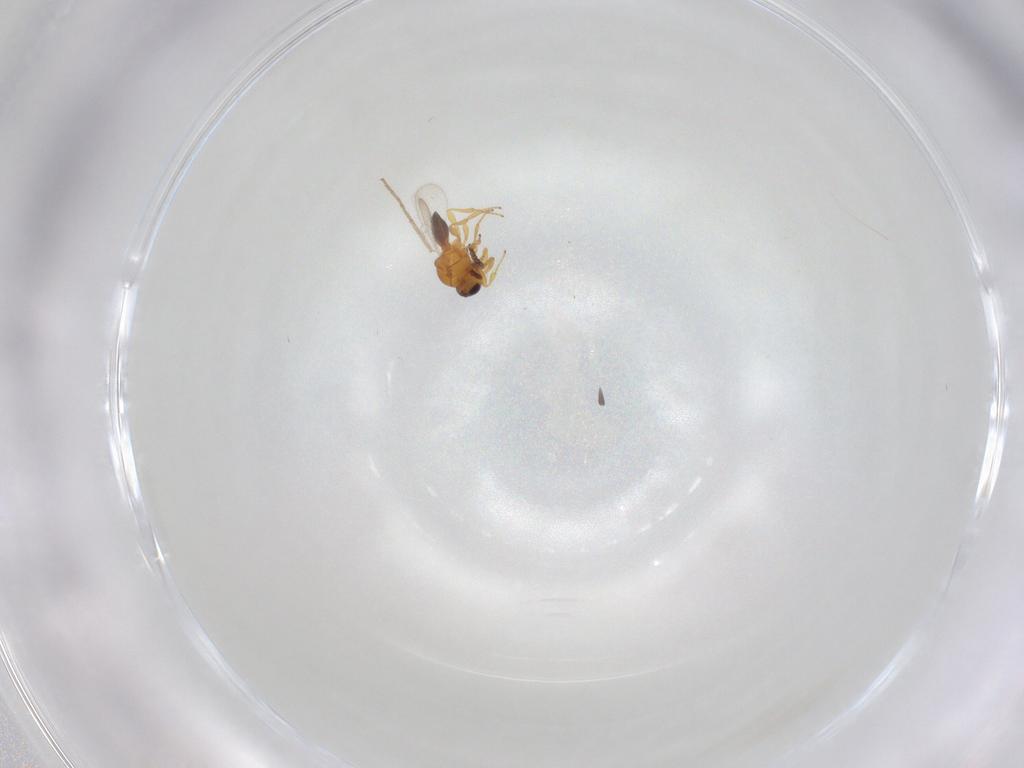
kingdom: Animalia
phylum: Arthropoda
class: Insecta
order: Hymenoptera
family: Platygastridae
